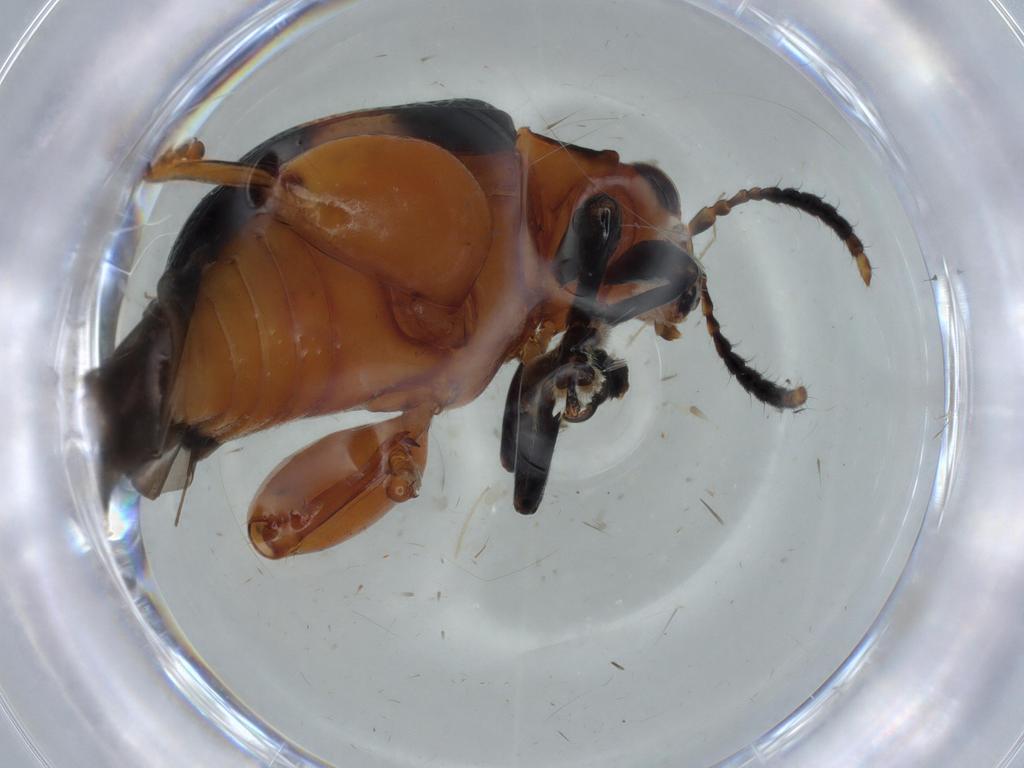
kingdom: Animalia
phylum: Arthropoda
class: Insecta
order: Coleoptera
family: Chrysomelidae
